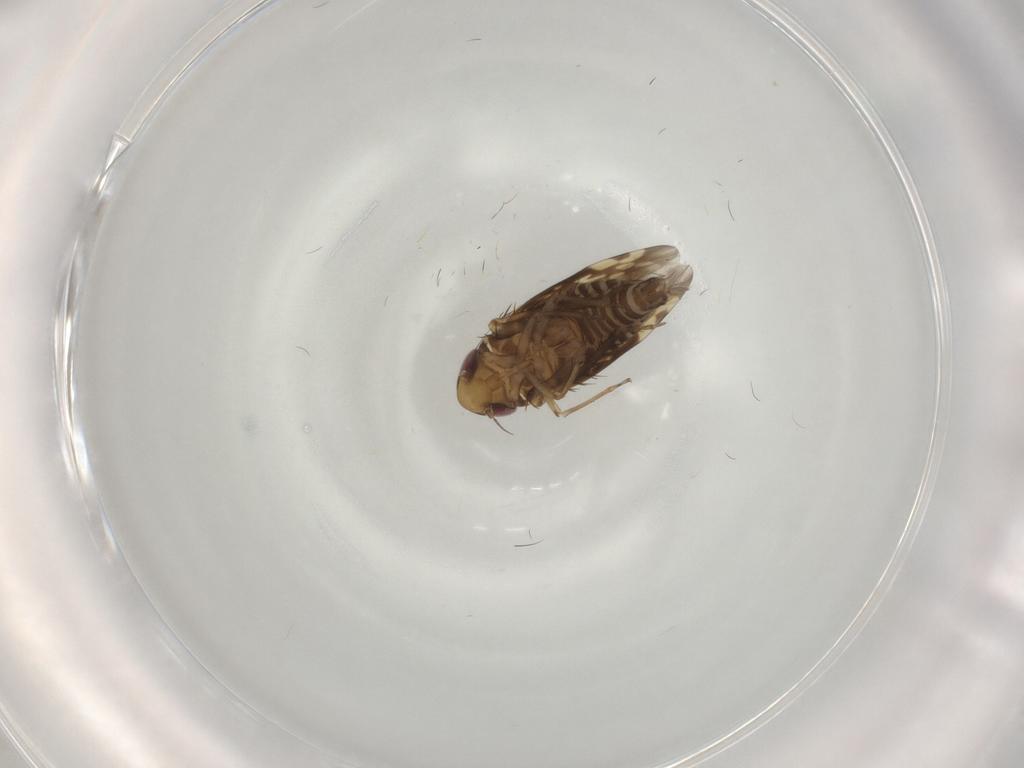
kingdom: Animalia
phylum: Arthropoda
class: Insecta
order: Hemiptera
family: Cicadellidae
